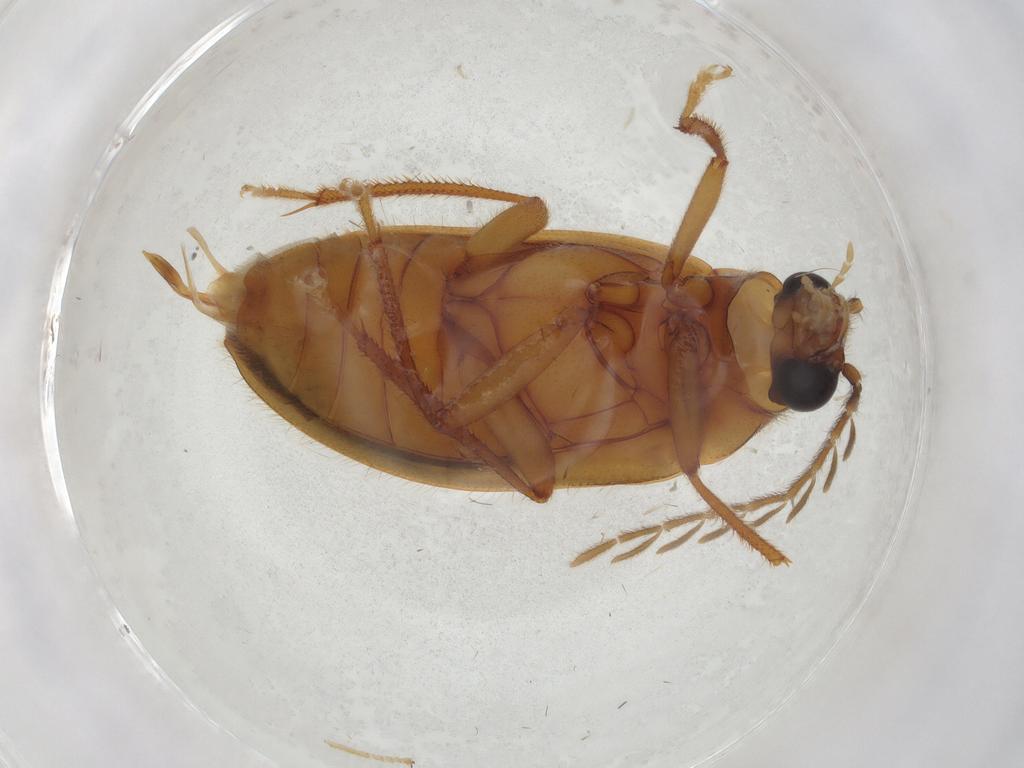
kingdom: Animalia
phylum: Arthropoda
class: Insecta
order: Coleoptera
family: Ptilodactylidae
